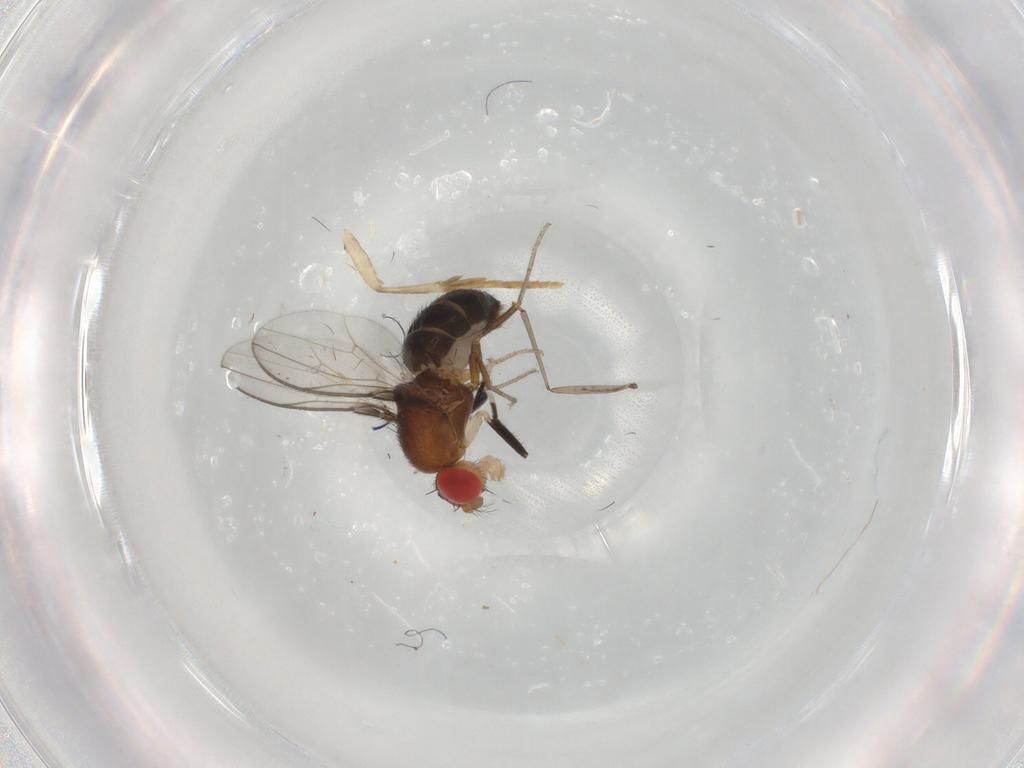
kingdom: Animalia
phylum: Arthropoda
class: Insecta
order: Diptera
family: Drosophilidae
